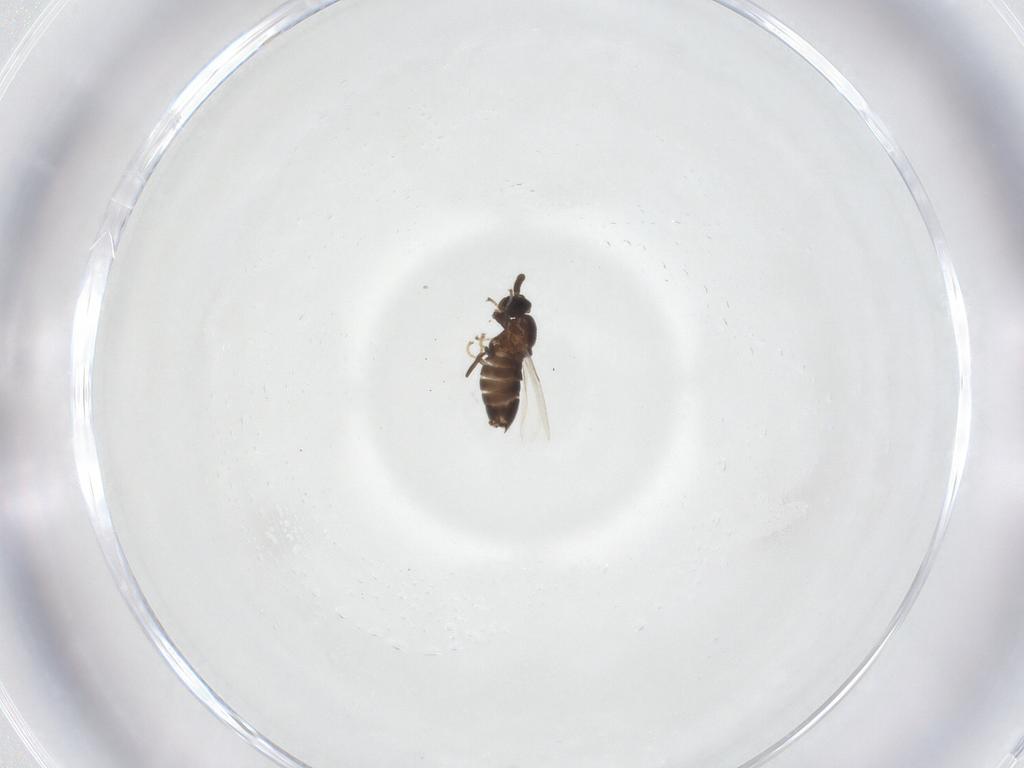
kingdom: Animalia
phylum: Arthropoda
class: Insecta
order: Diptera
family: Scatopsidae
